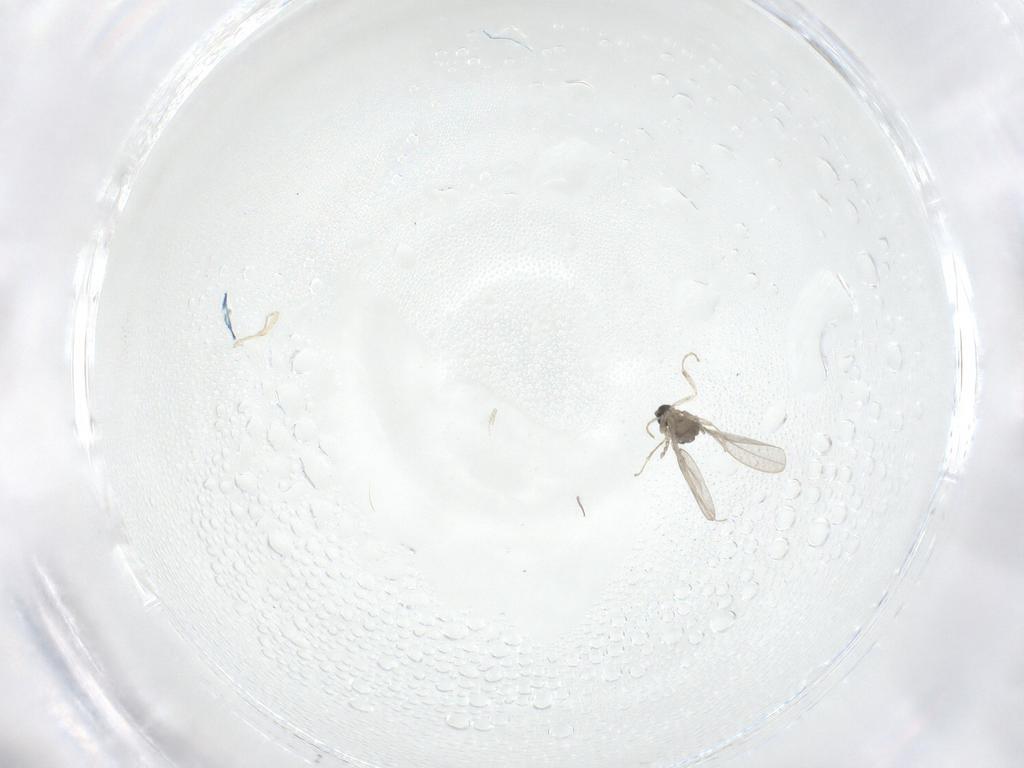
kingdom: Animalia
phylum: Arthropoda
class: Insecta
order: Diptera
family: Cecidomyiidae
